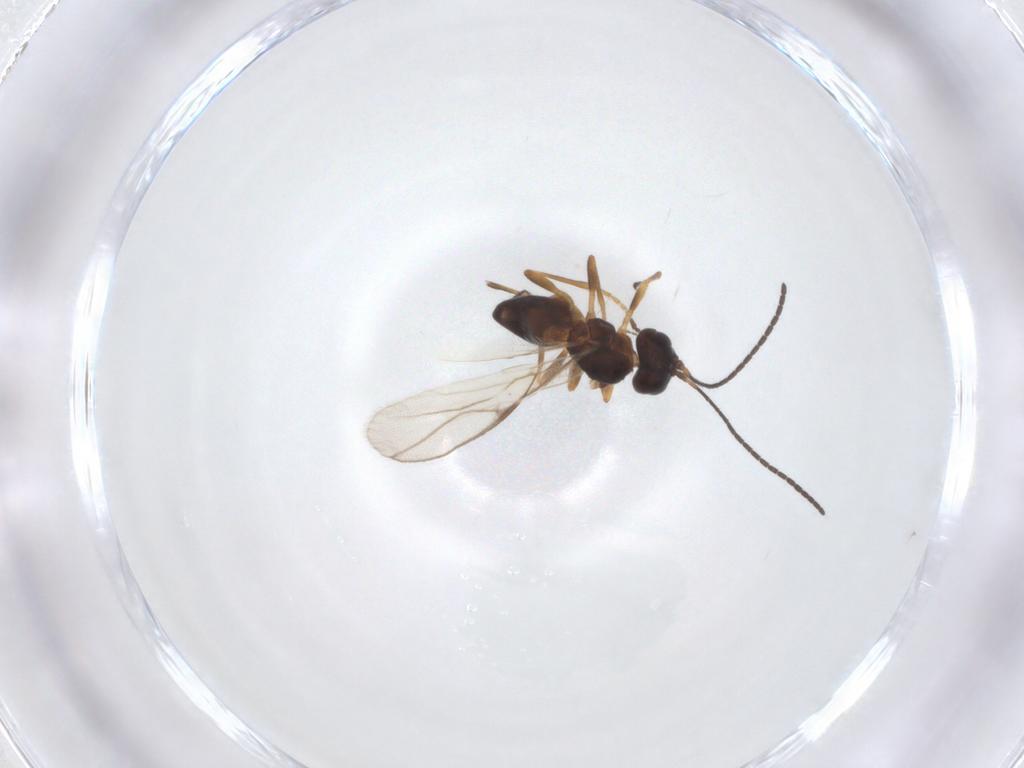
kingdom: Animalia
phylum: Arthropoda
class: Insecta
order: Hymenoptera
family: Braconidae
